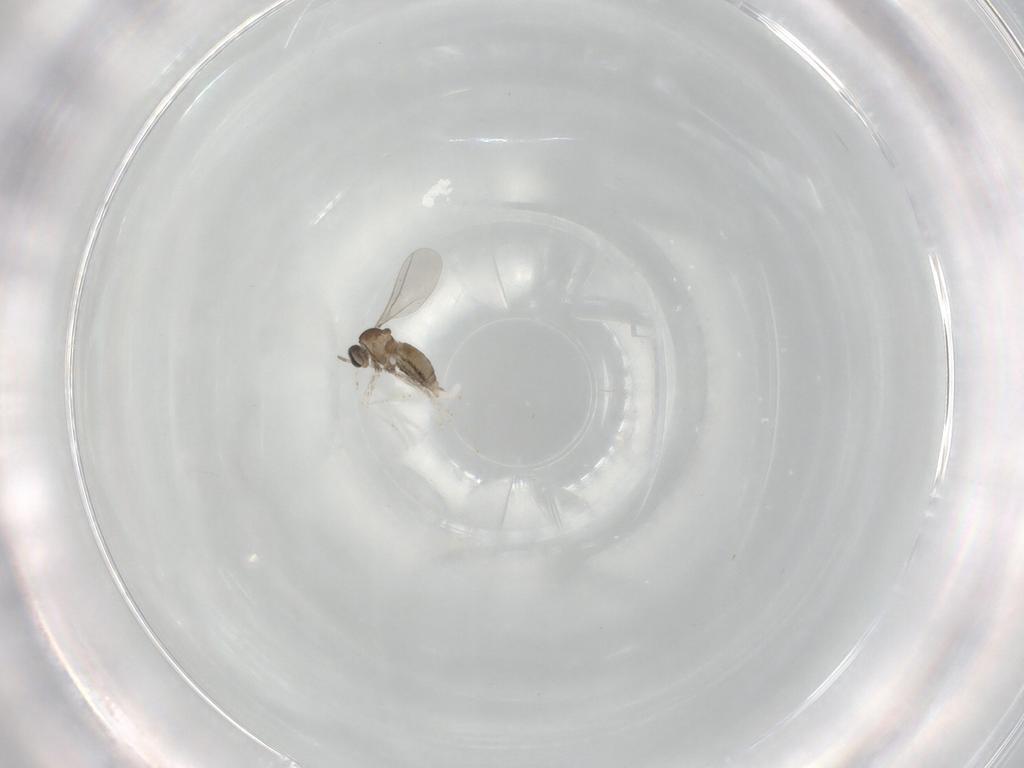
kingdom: Animalia
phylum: Arthropoda
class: Insecta
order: Diptera
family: Cecidomyiidae
